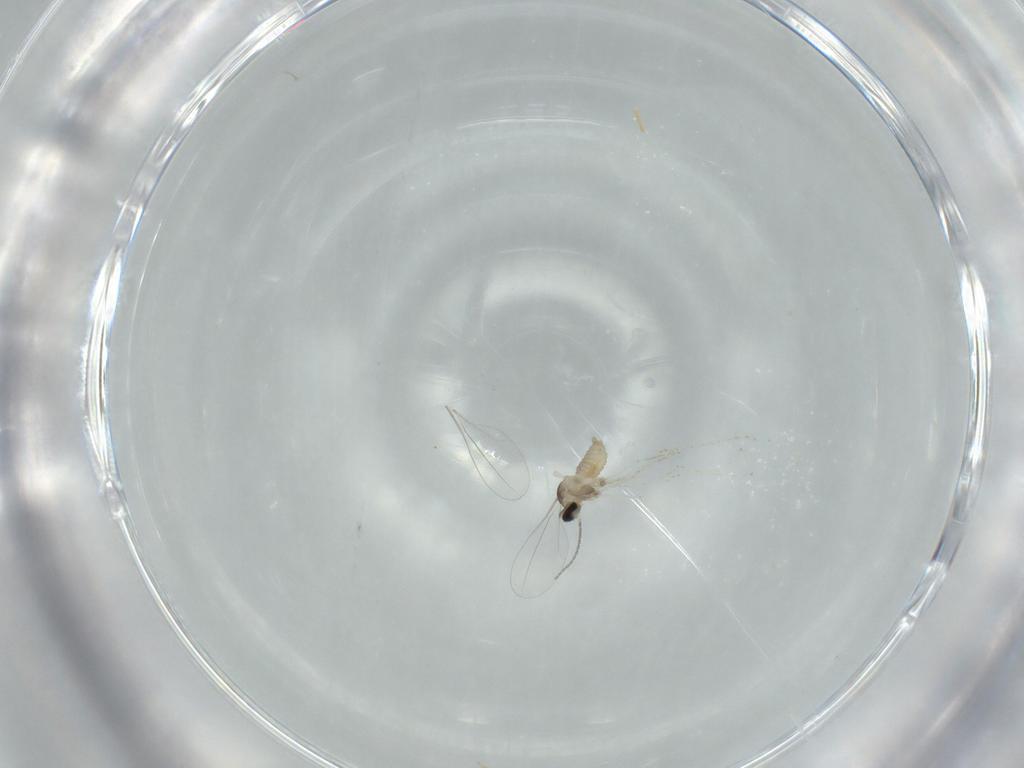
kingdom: Animalia
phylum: Arthropoda
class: Insecta
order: Diptera
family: Cecidomyiidae
